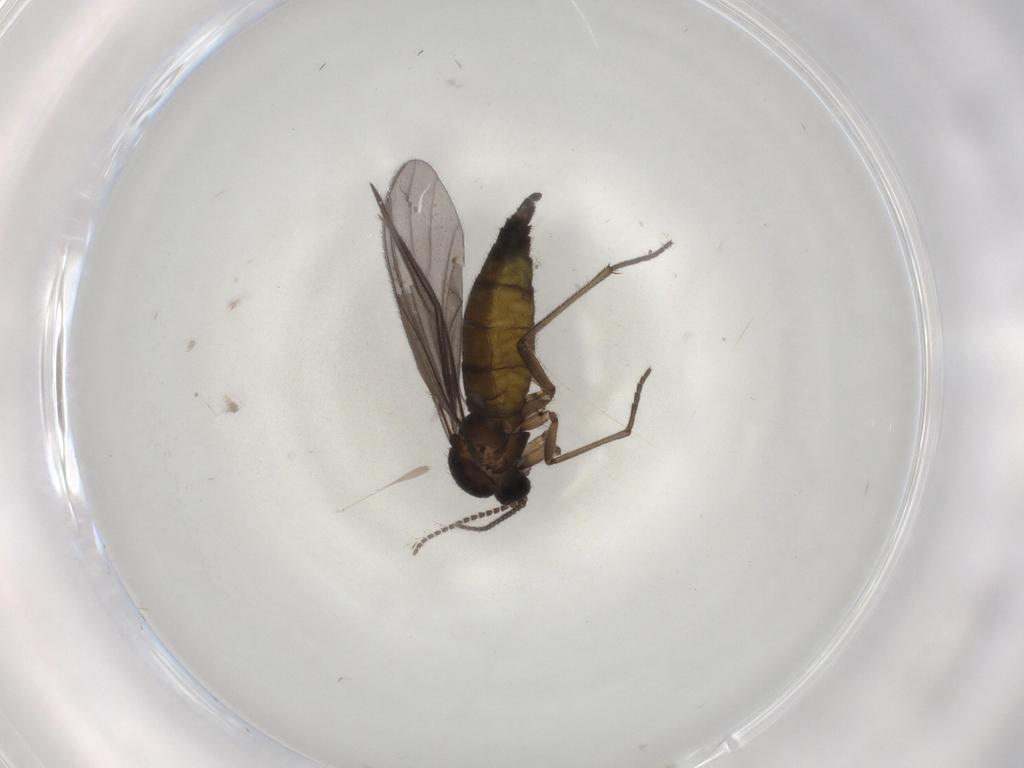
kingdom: Animalia
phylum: Arthropoda
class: Insecta
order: Diptera
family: Sciaridae
